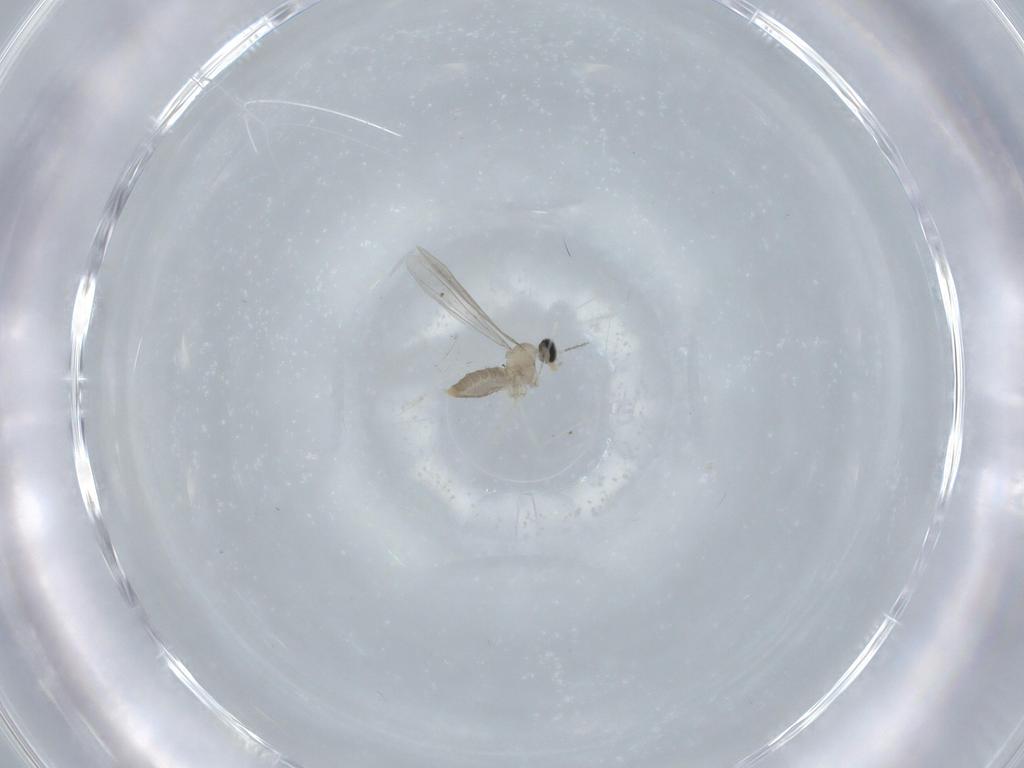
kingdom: Animalia
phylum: Arthropoda
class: Insecta
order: Diptera
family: Cecidomyiidae
